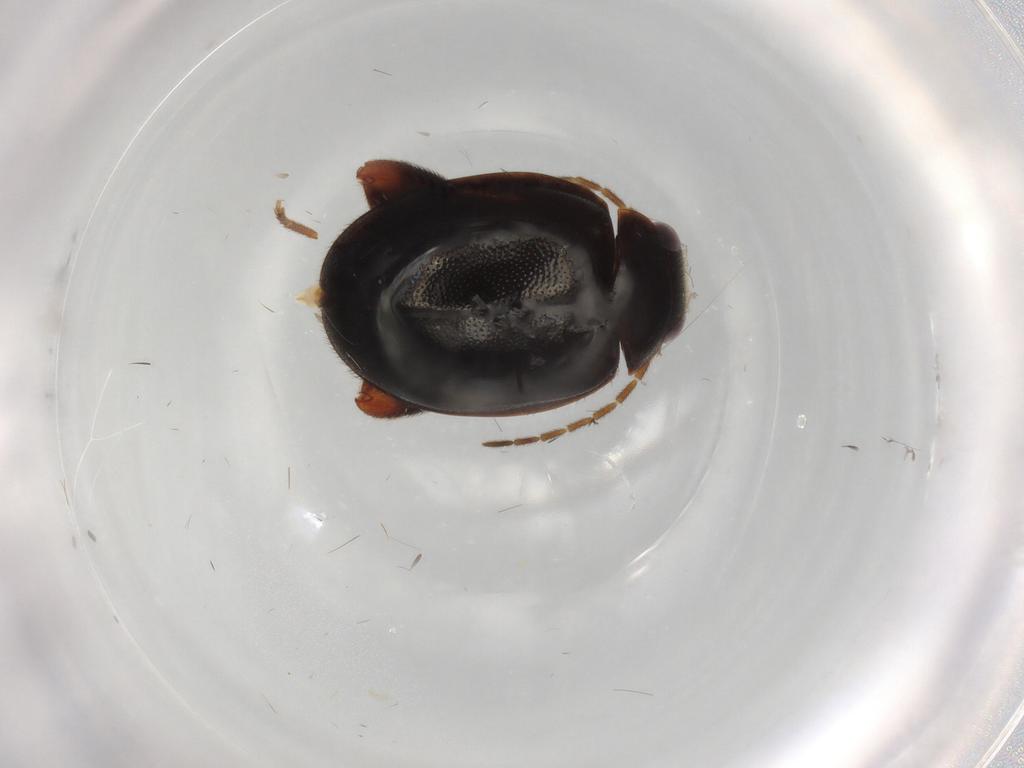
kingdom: Animalia
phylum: Arthropoda
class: Insecta
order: Coleoptera
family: Scirtidae
